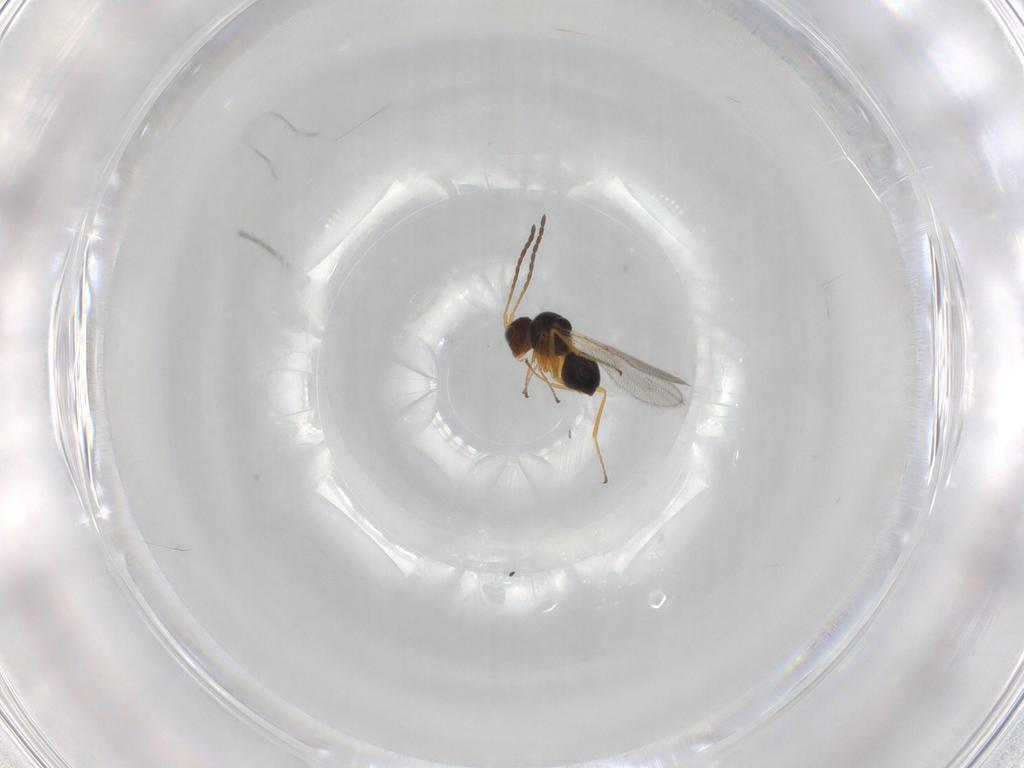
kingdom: Animalia
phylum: Arthropoda
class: Insecta
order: Hymenoptera
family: Figitidae
